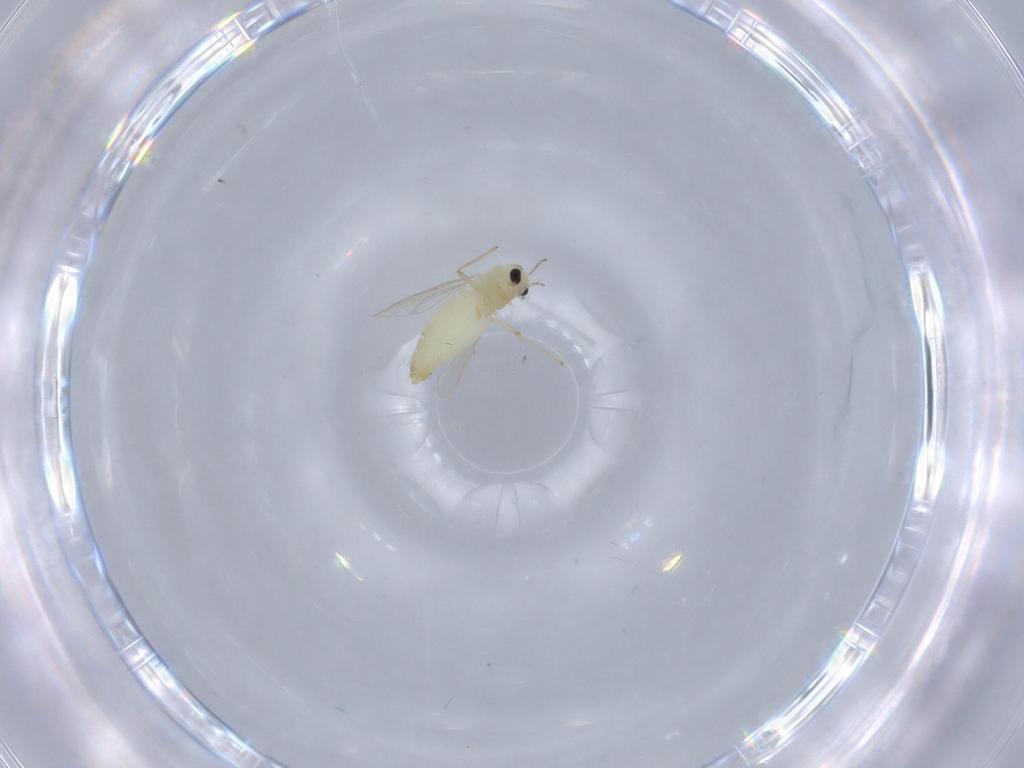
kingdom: Animalia
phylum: Arthropoda
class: Insecta
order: Diptera
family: Chironomidae
